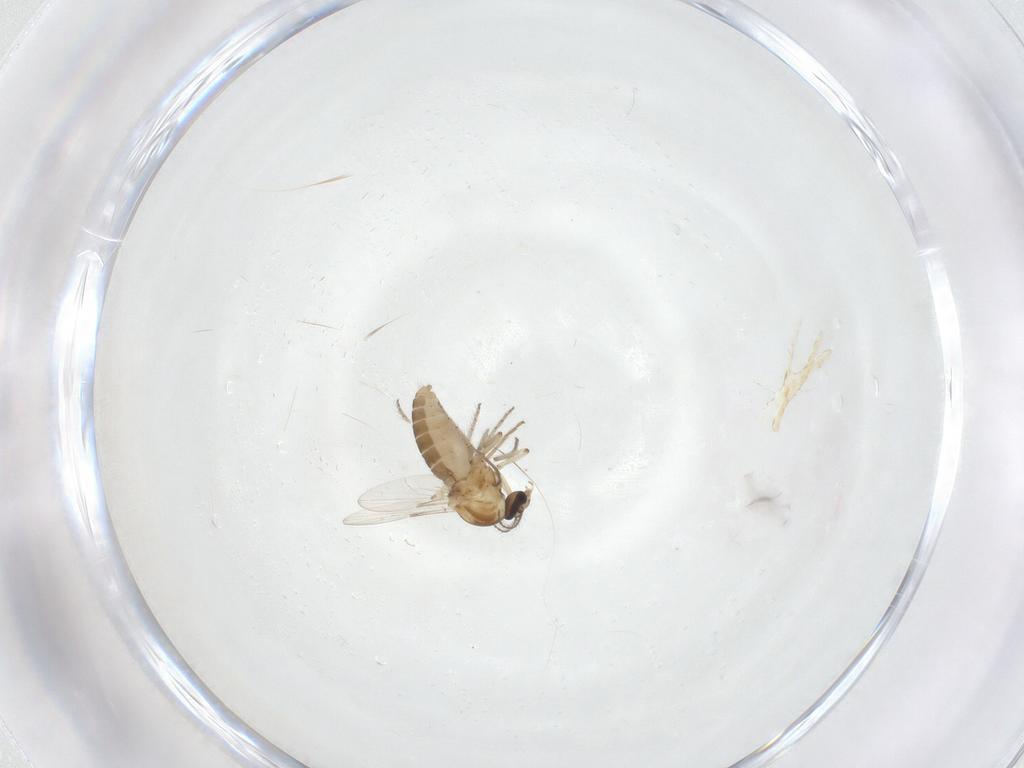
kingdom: Animalia
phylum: Arthropoda
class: Insecta
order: Diptera
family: Ceratopogonidae
